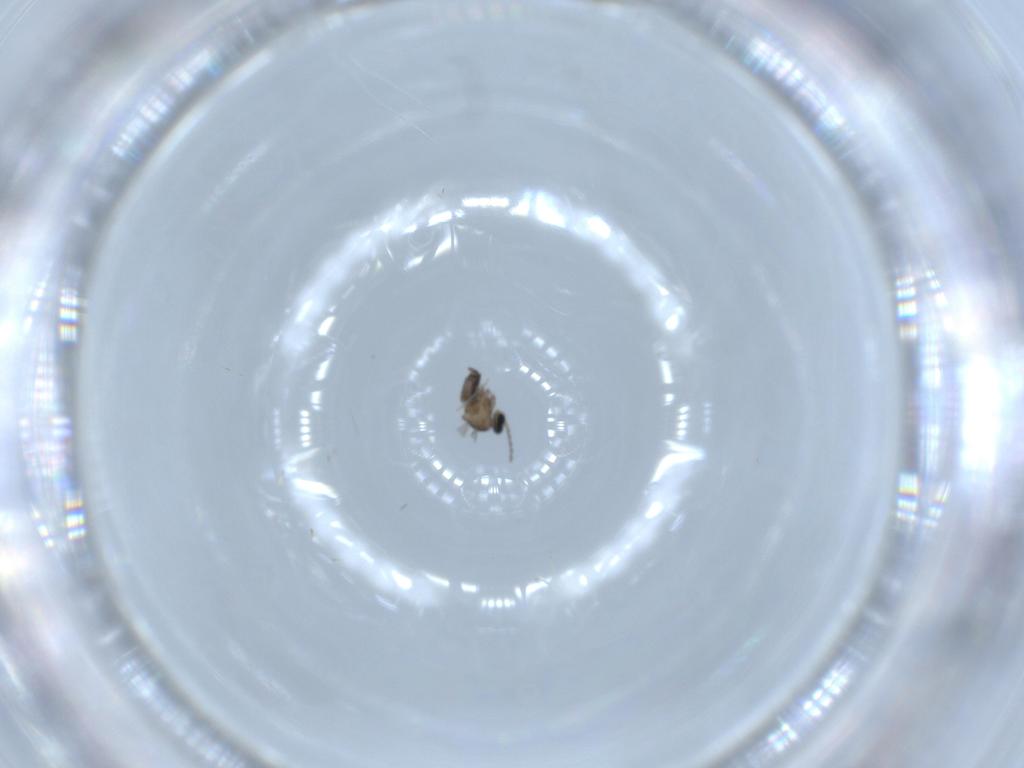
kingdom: Animalia
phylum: Arthropoda
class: Insecta
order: Diptera
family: Cecidomyiidae
